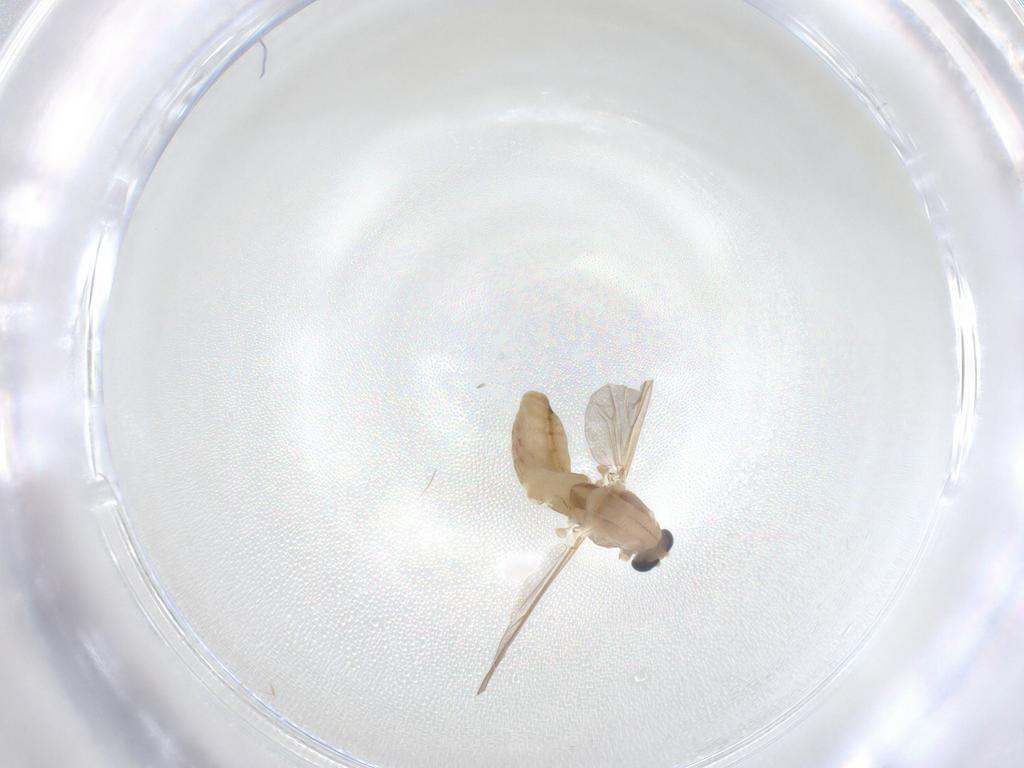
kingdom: Animalia
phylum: Arthropoda
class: Insecta
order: Diptera
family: Chironomidae
